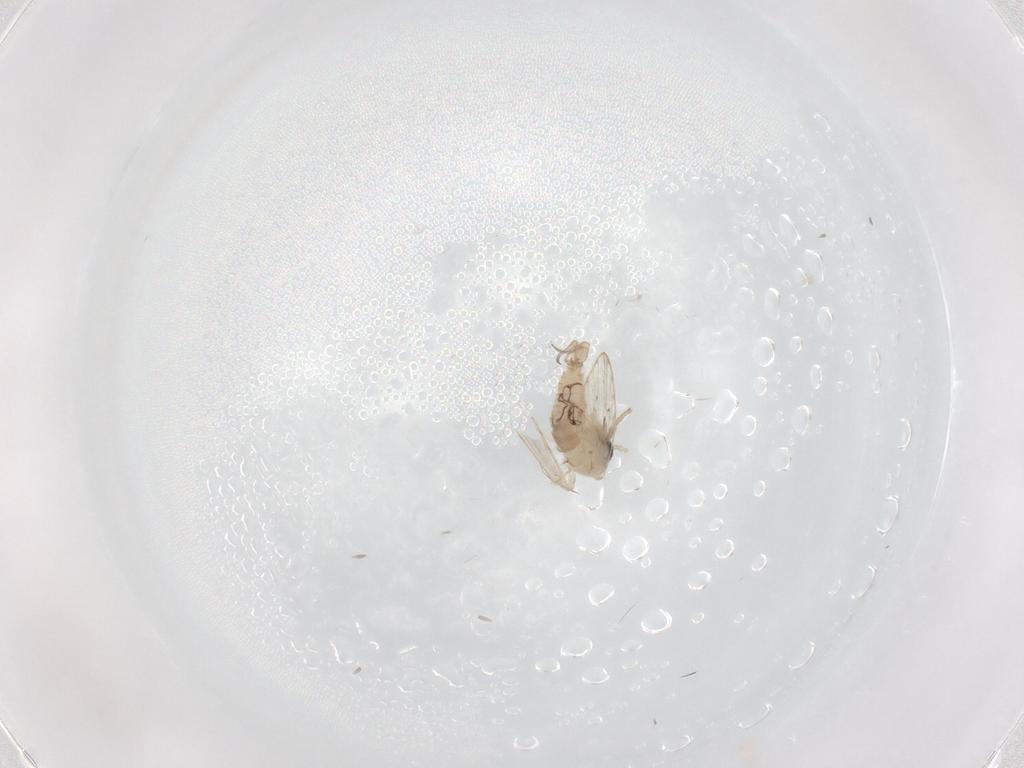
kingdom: Animalia
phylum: Arthropoda
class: Insecta
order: Diptera
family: Psychodidae
